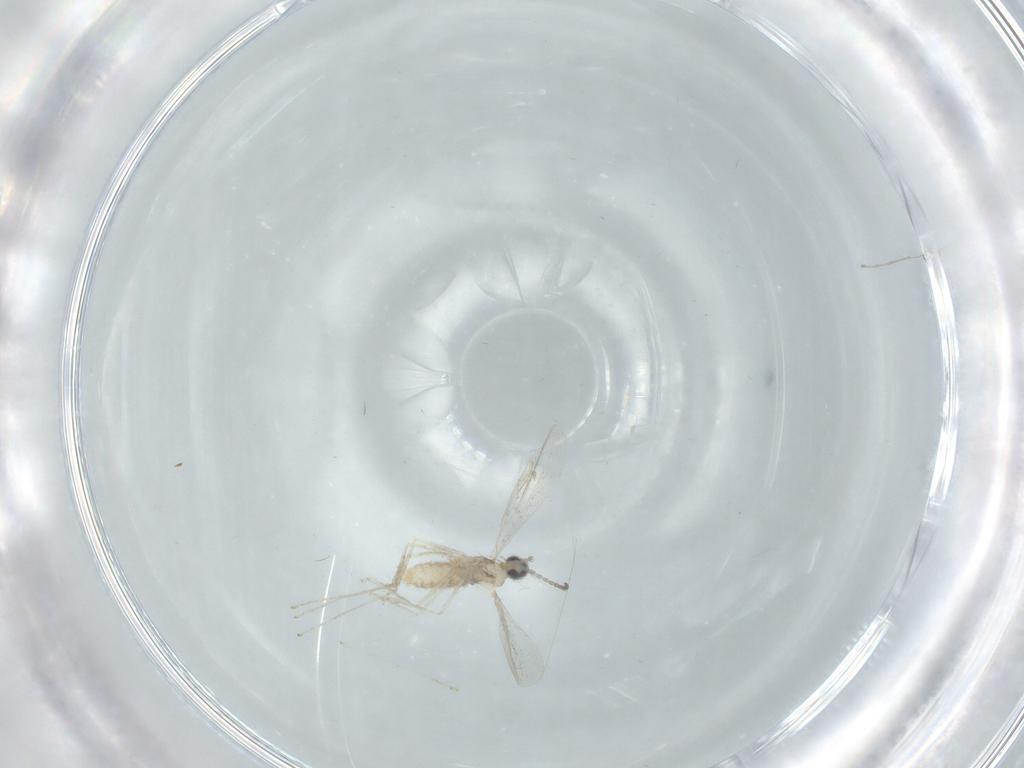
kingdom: Animalia
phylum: Arthropoda
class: Insecta
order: Diptera
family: Cecidomyiidae
